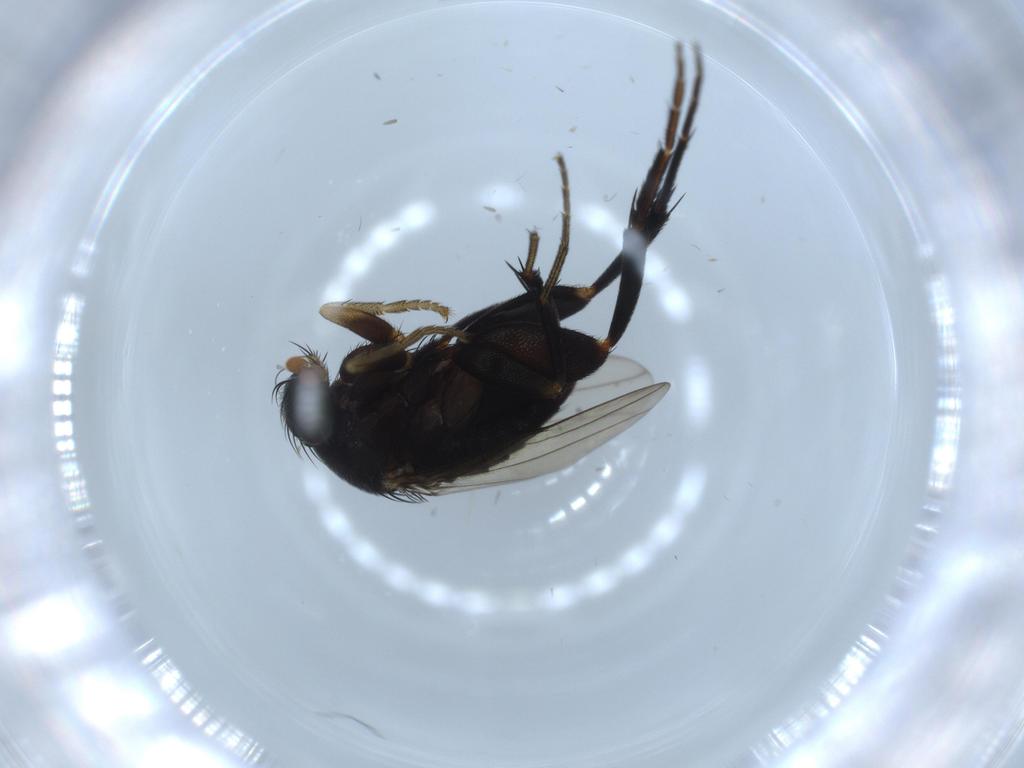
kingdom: Animalia
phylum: Arthropoda
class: Insecta
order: Diptera
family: Phoridae
